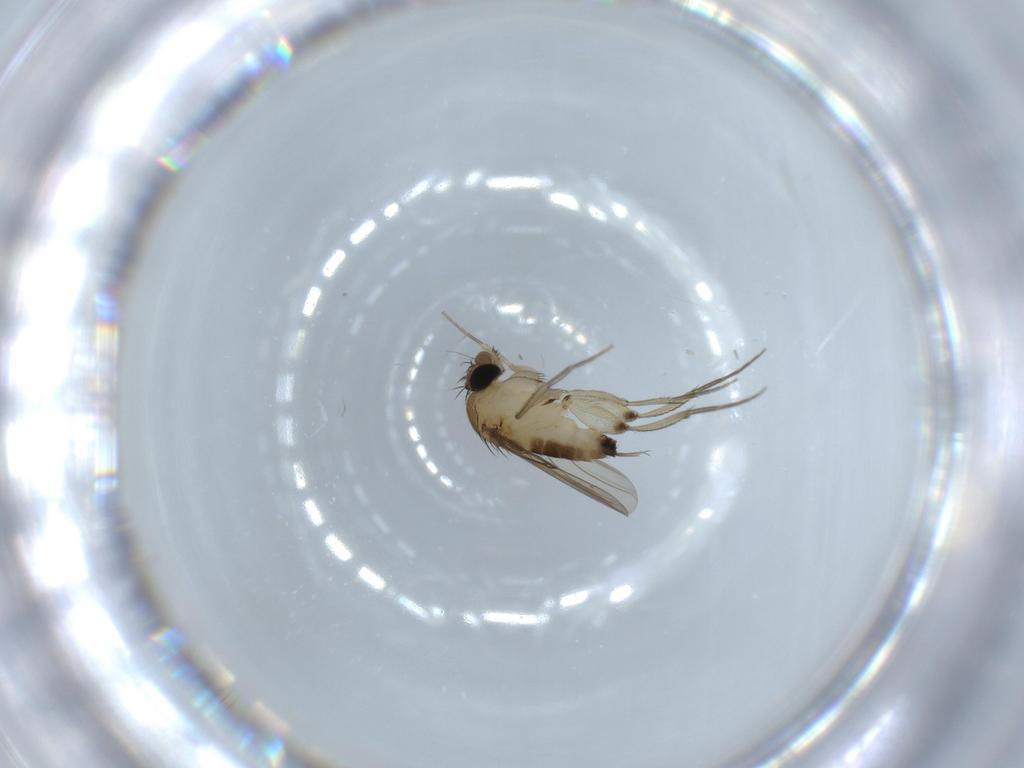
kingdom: Animalia
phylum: Arthropoda
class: Insecta
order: Diptera
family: Phoridae
